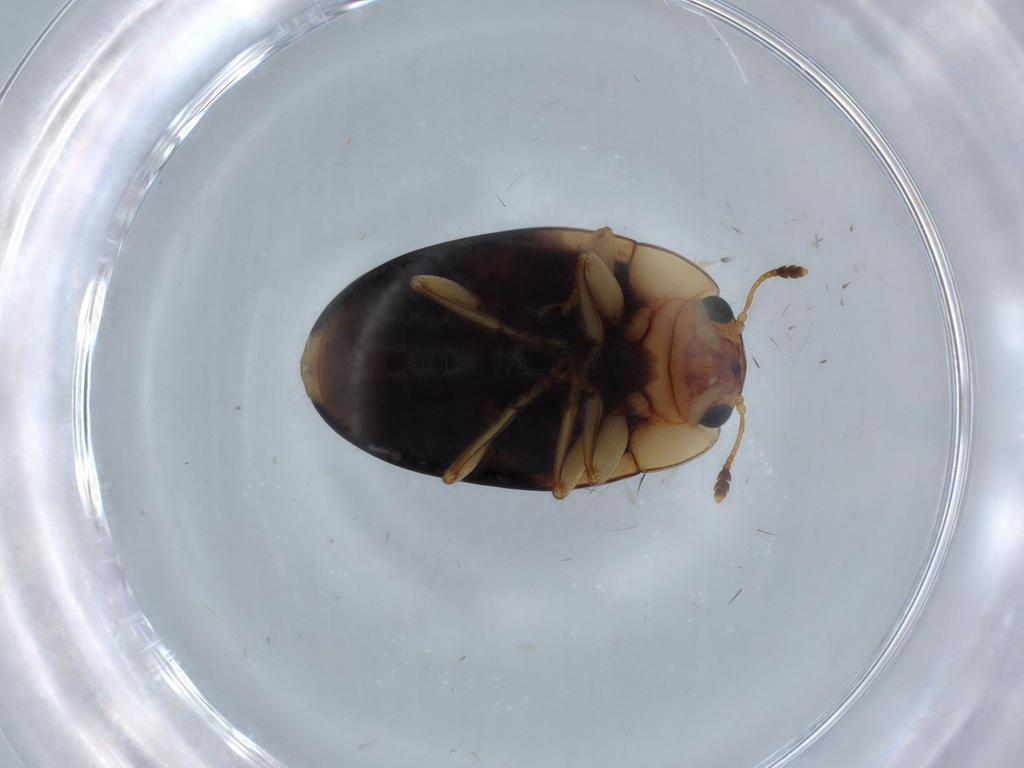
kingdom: Animalia
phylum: Arthropoda
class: Insecta
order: Coleoptera
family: Erotylidae
